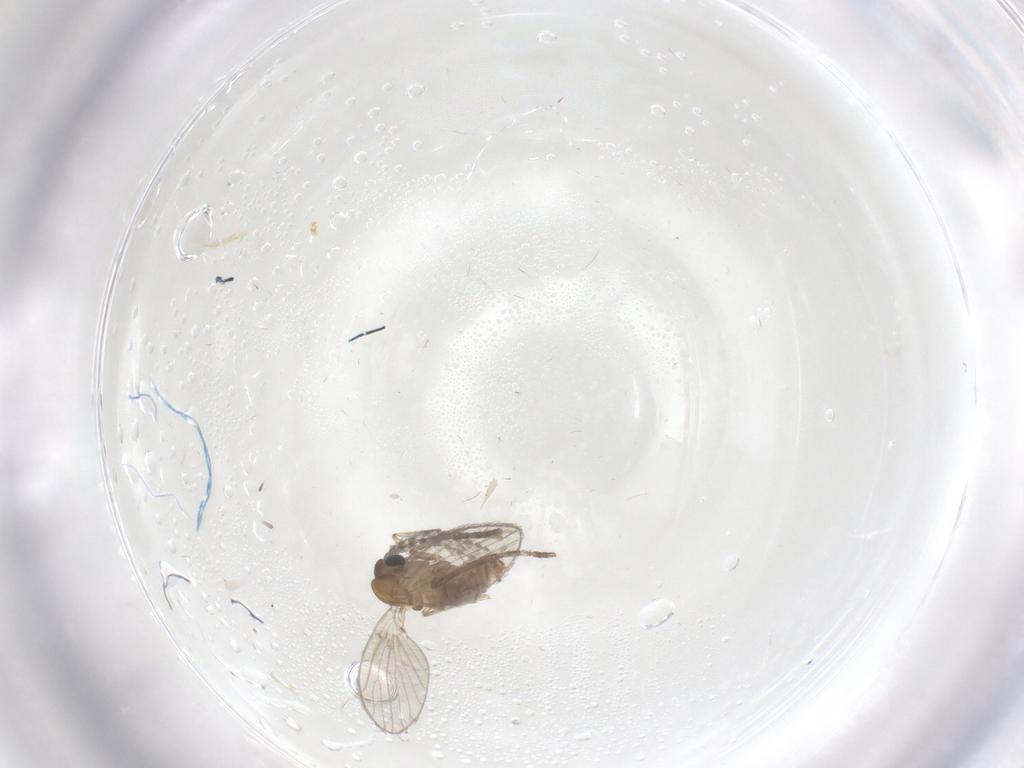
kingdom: Animalia
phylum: Arthropoda
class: Insecta
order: Diptera
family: Psychodidae
